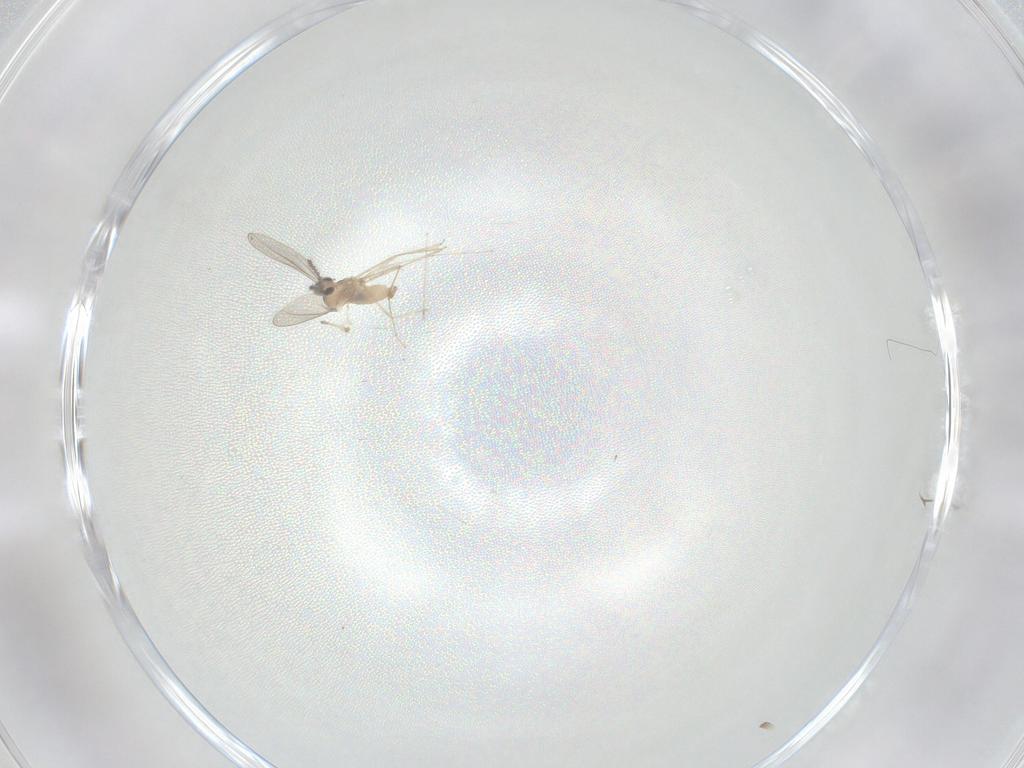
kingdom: Animalia
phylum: Arthropoda
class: Insecta
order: Diptera
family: Cecidomyiidae
